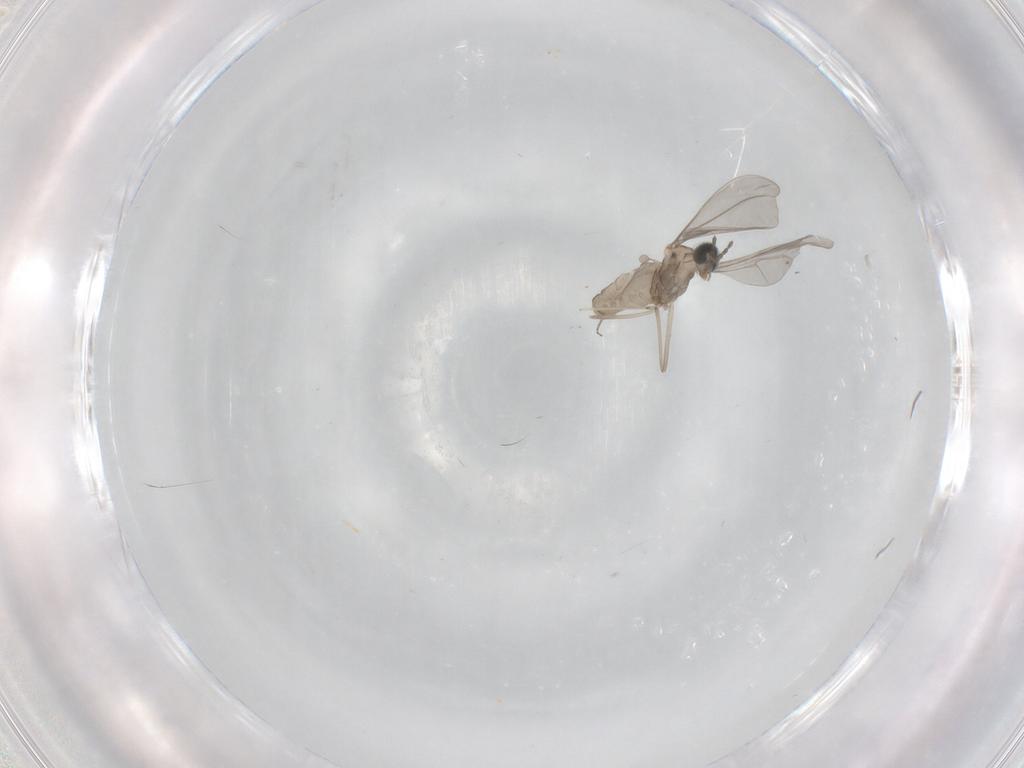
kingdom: Animalia
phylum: Arthropoda
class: Insecta
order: Diptera
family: Cecidomyiidae
